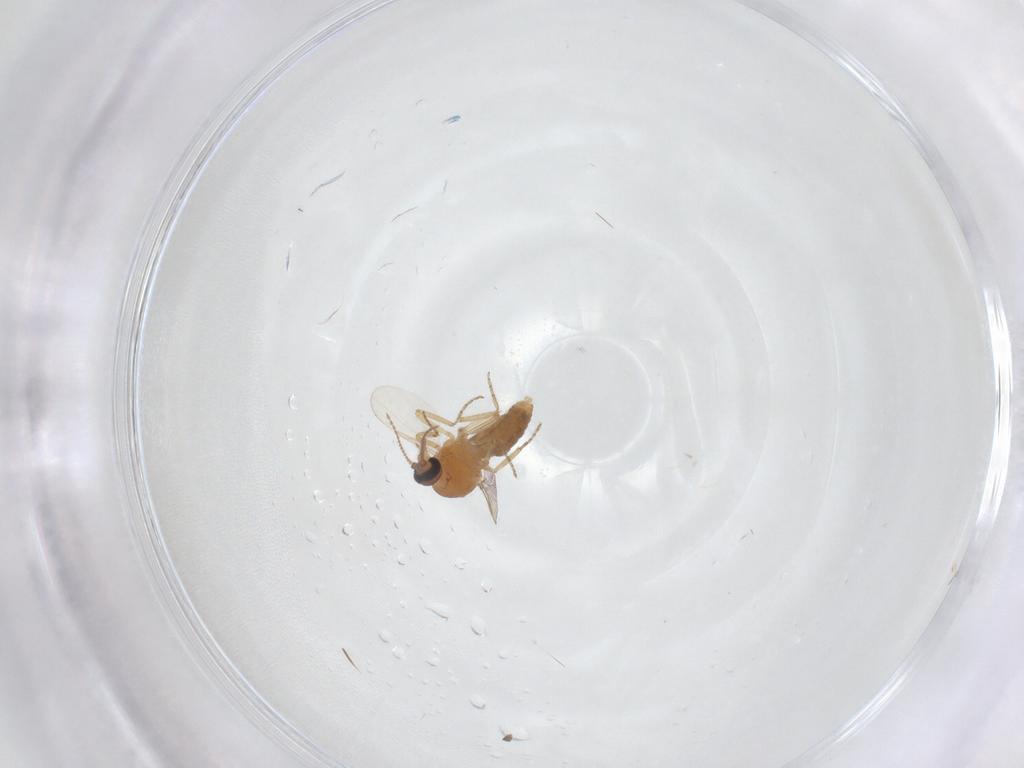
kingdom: Animalia
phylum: Arthropoda
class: Insecta
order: Diptera
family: Ceratopogonidae
